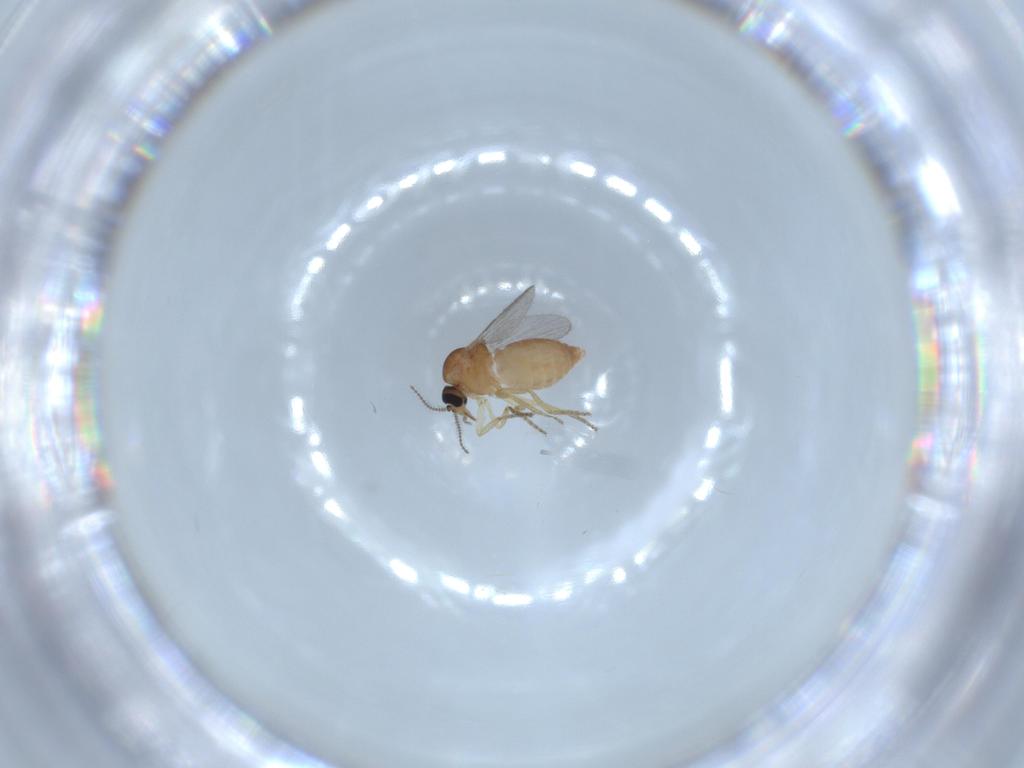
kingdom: Animalia
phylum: Arthropoda
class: Insecta
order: Diptera
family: Ceratopogonidae
